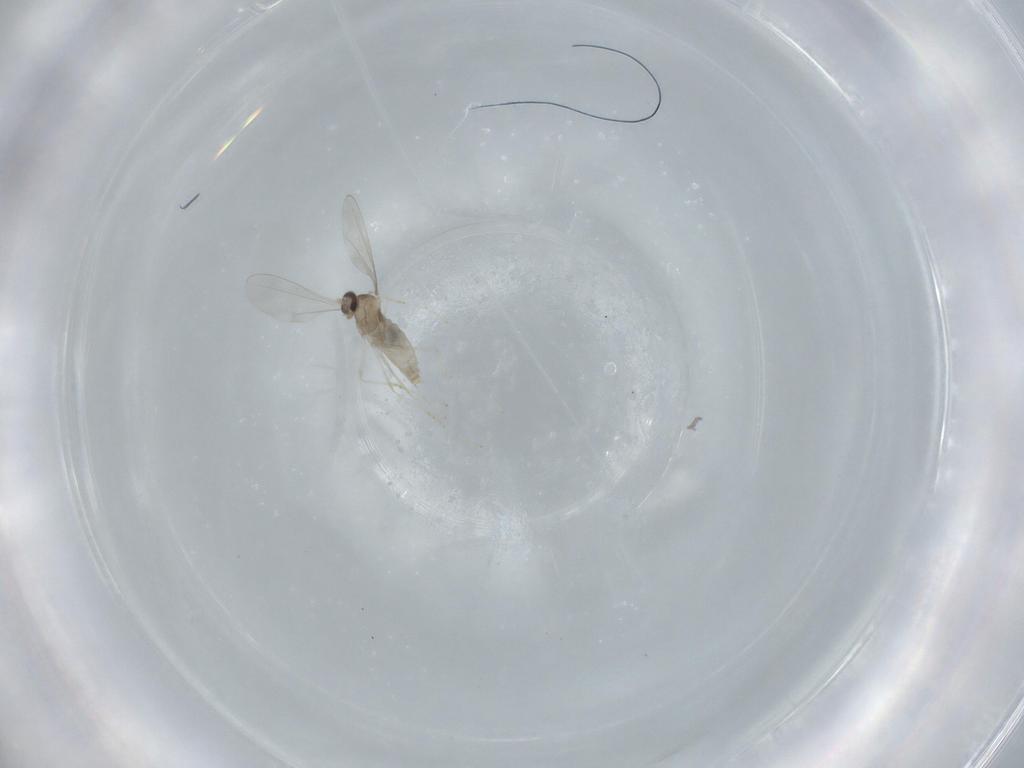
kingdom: Animalia
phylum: Arthropoda
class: Insecta
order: Diptera
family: Cecidomyiidae
